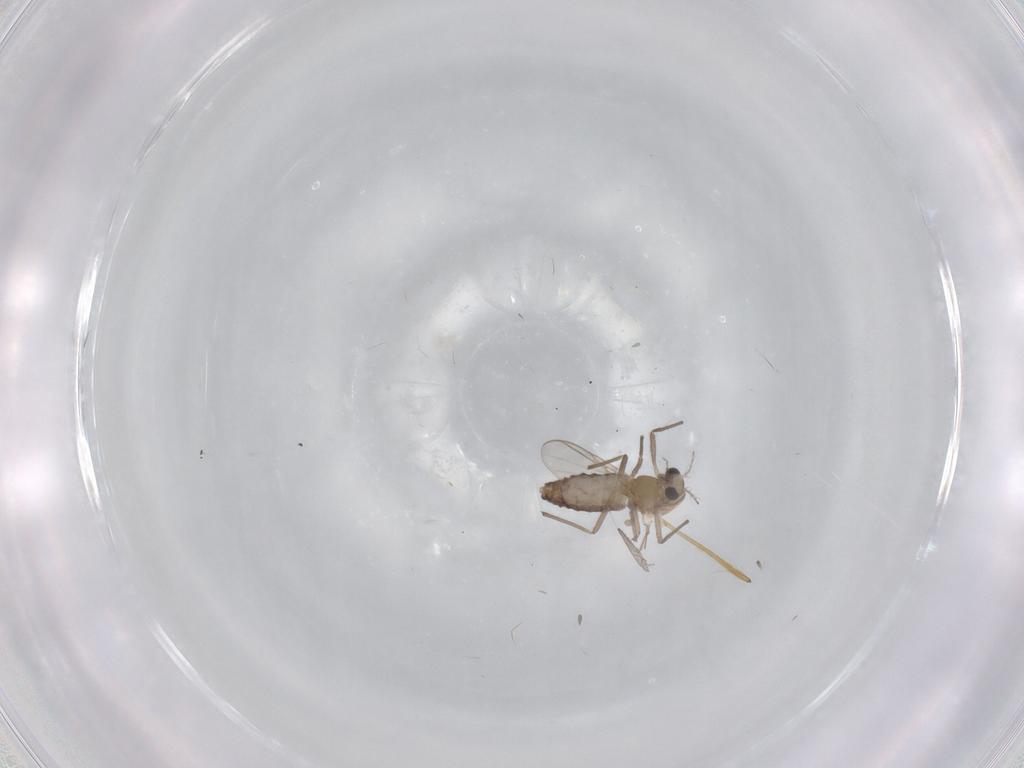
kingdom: Animalia
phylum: Arthropoda
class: Insecta
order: Diptera
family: Chironomidae
